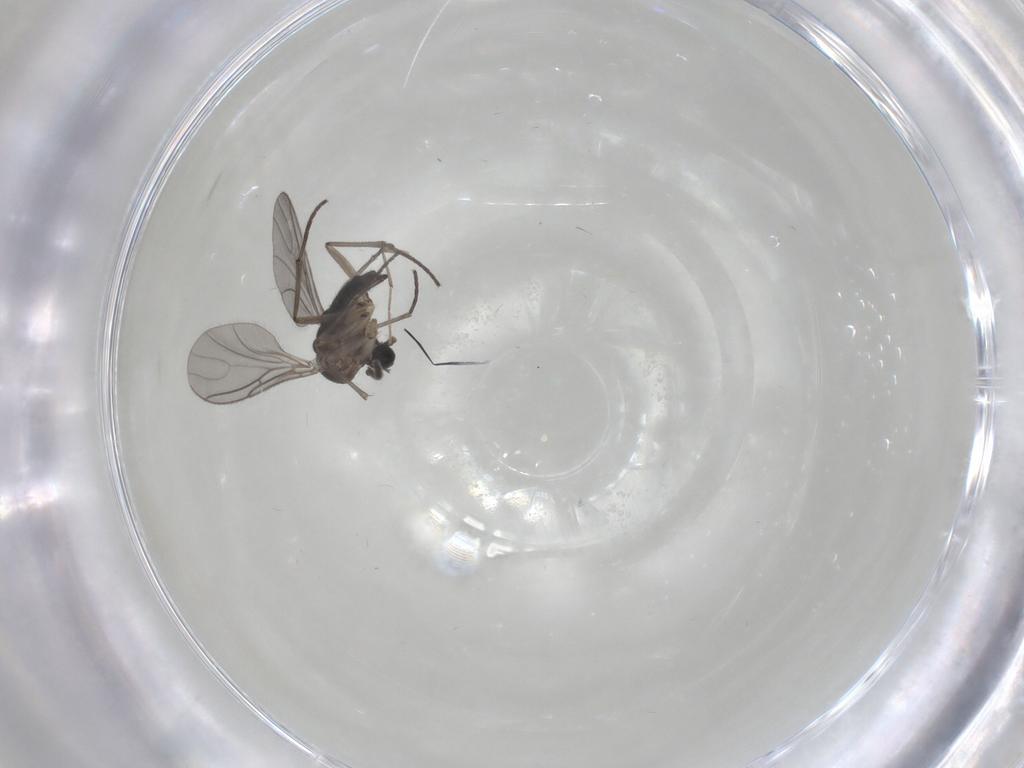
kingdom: Animalia
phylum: Arthropoda
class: Insecta
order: Diptera
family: Sciaridae
